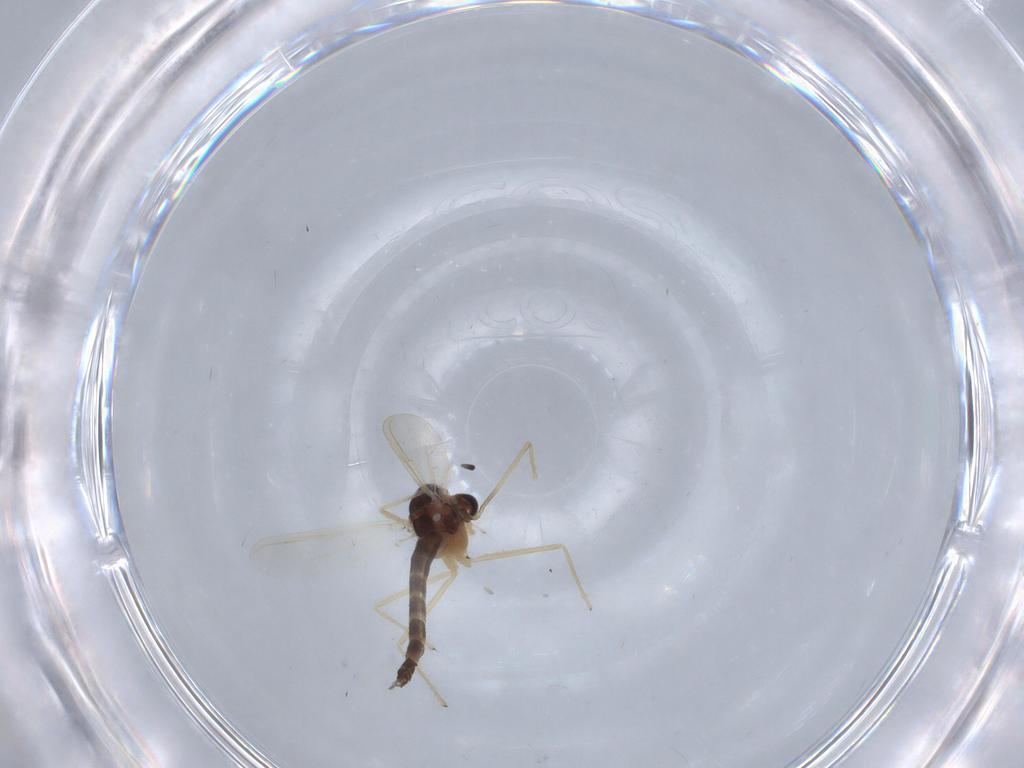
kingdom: Animalia
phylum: Arthropoda
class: Insecta
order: Diptera
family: Chironomidae
